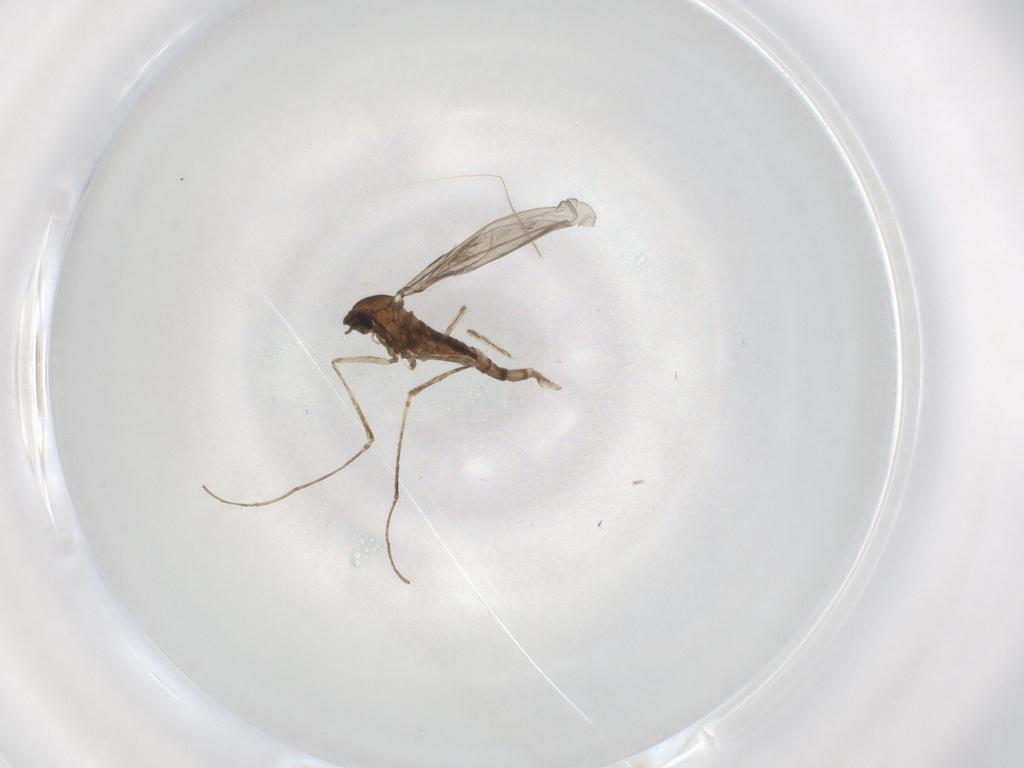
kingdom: Animalia
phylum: Arthropoda
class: Insecta
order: Diptera
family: Cecidomyiidae
